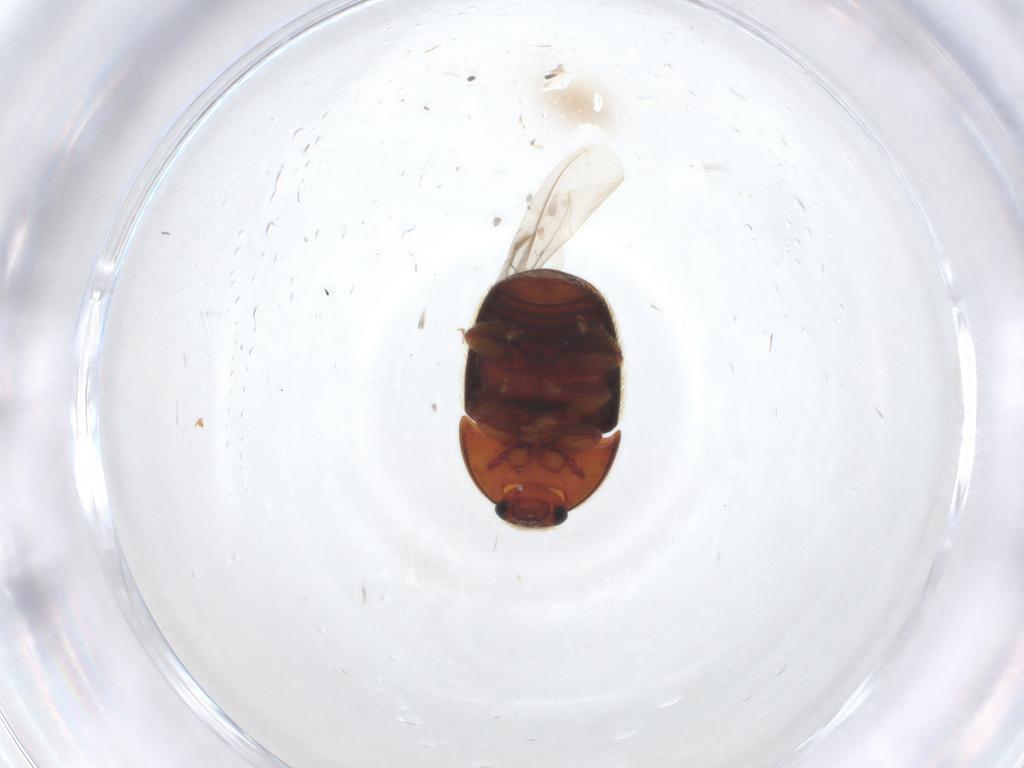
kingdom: Animalia
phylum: Arthropoda
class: Insecta
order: Coleoptera
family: Nitidulidae
